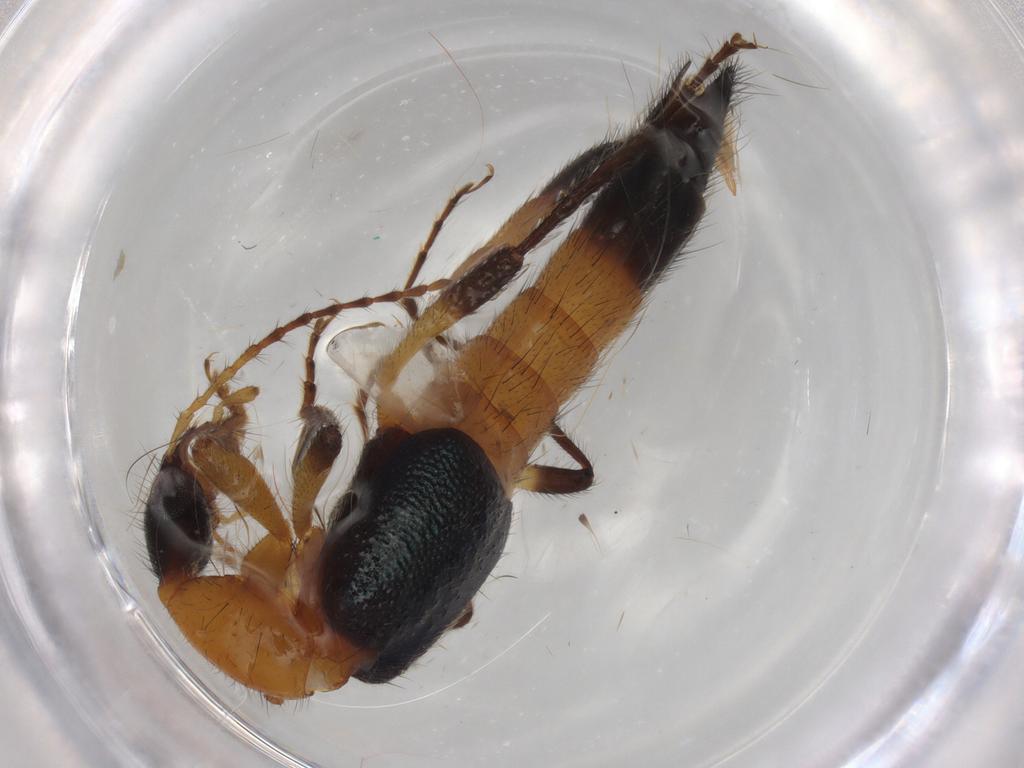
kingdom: Animalia
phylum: Arthropoda
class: Insecta
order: Coleoptera
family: Staphylinidae
